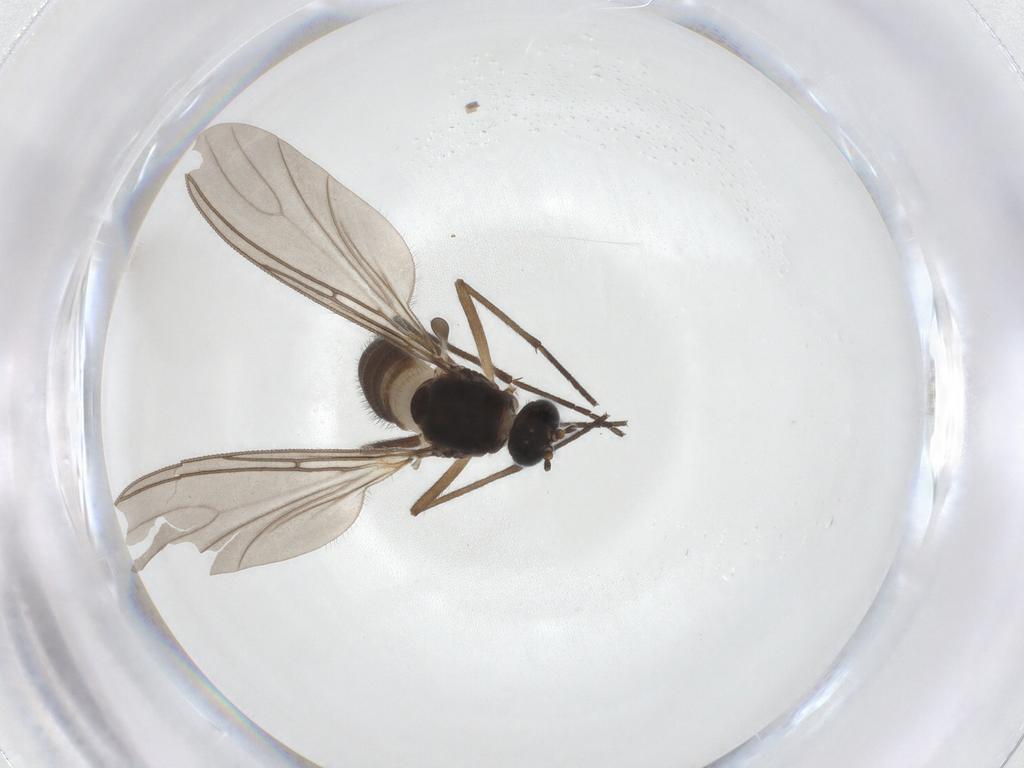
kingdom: Animalia
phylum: Arthropoda
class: Insecta
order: Diptera
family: Sciaridae
